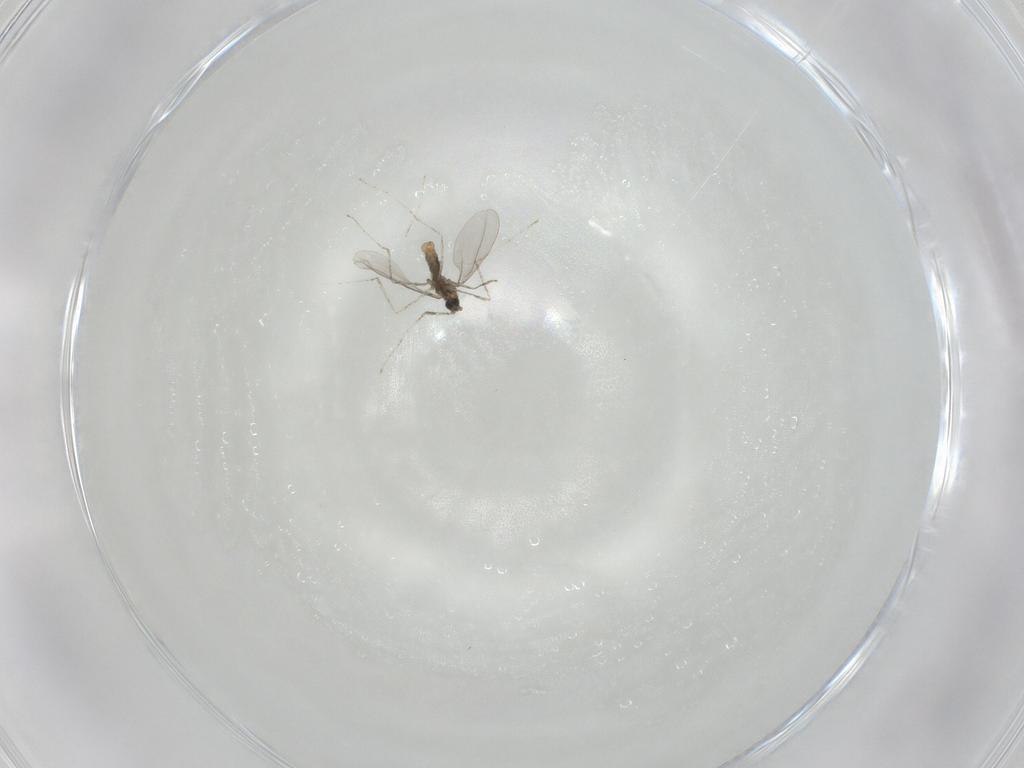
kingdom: Animalia
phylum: Arthropoda
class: Insecta
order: Diptera
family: Cecidomyiidae
